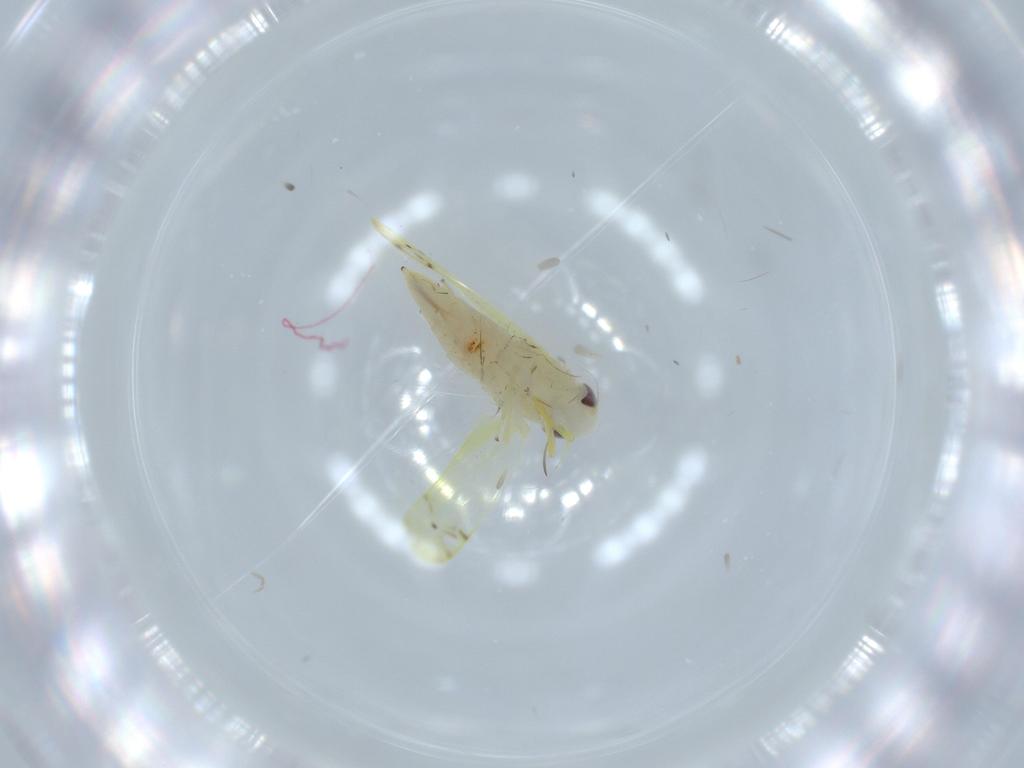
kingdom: Animalia
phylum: Arthropoda
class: Insecta
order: Hemiptera
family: Cicadellidae
